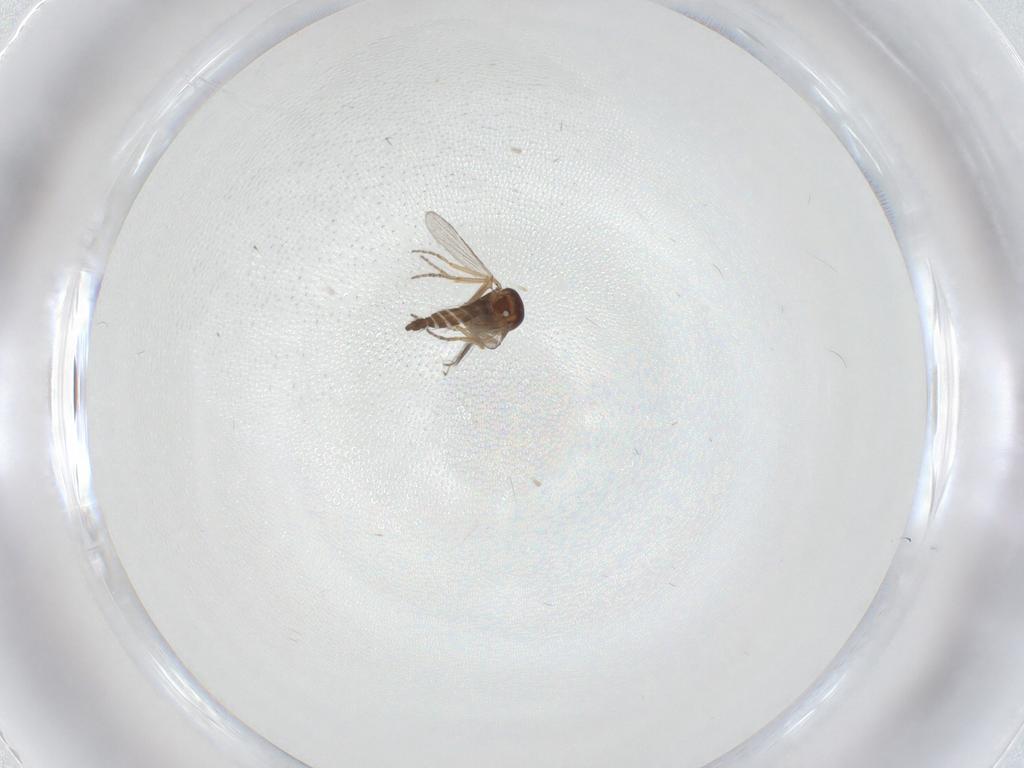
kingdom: Animalia
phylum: Arthropoda
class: Insecta
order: Diptera
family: Ceratopogonidae
